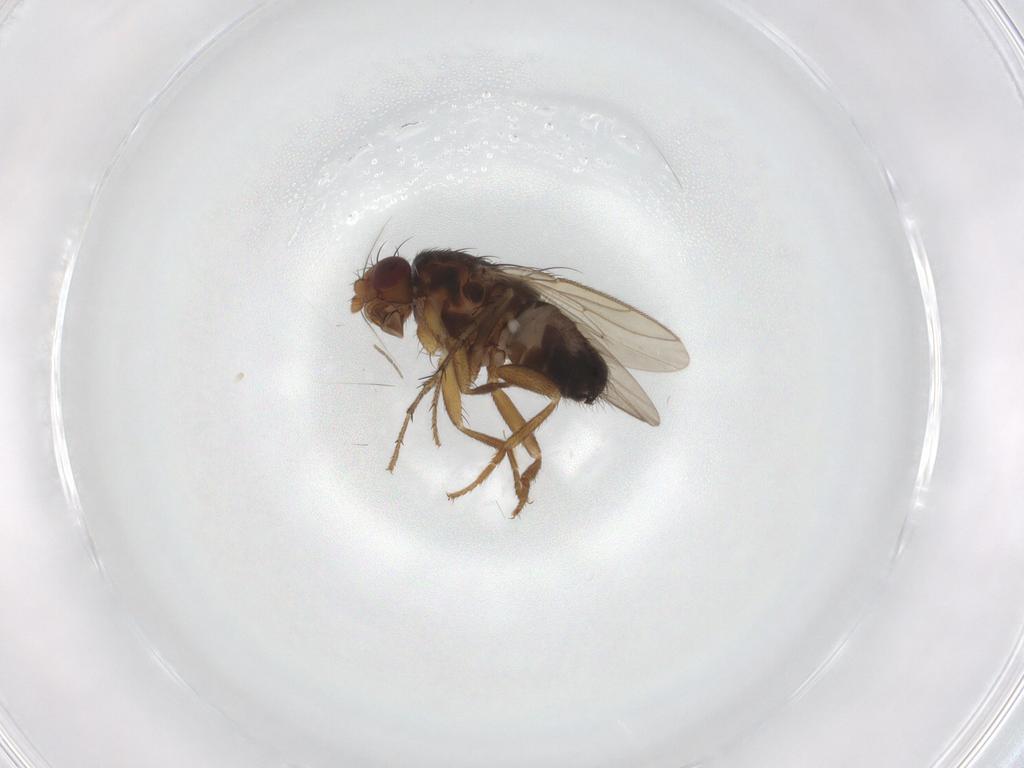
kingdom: Animalia
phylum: Arthropoda
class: Insecta
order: Diptera
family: Sphaeroceridae
